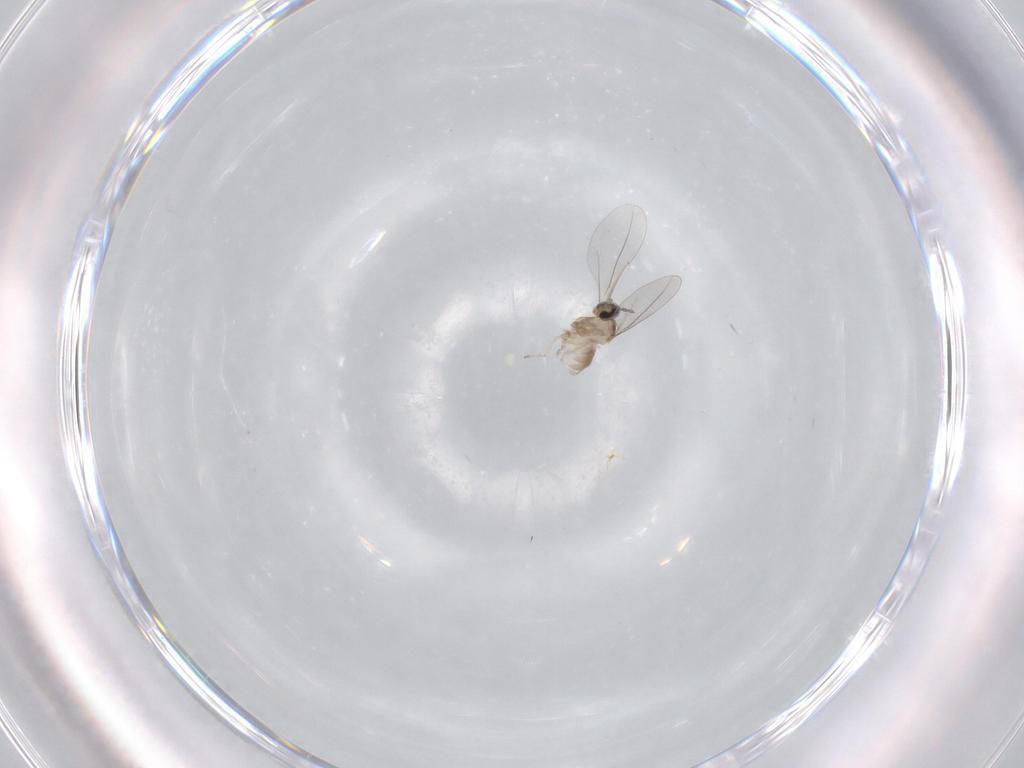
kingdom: Animalia
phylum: Arthropoda
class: Insecta
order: Diptera
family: Cecidomyiidae
